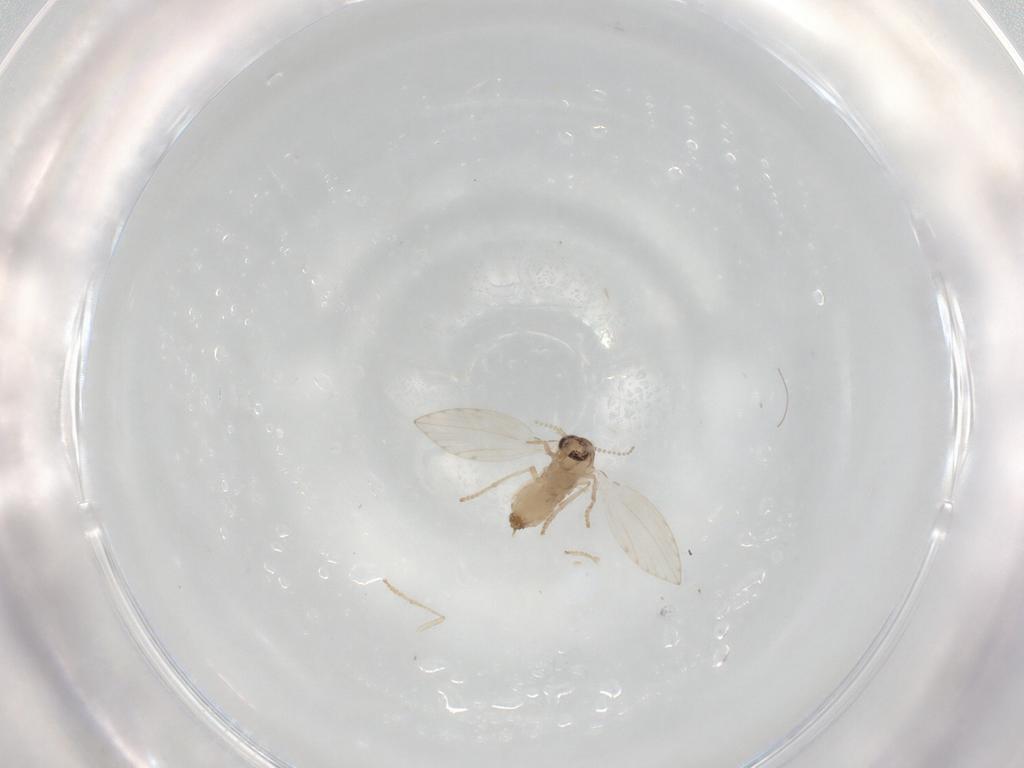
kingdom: Animalia
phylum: Arthropoda
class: Insecta
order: Diptera
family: Psychodidae
